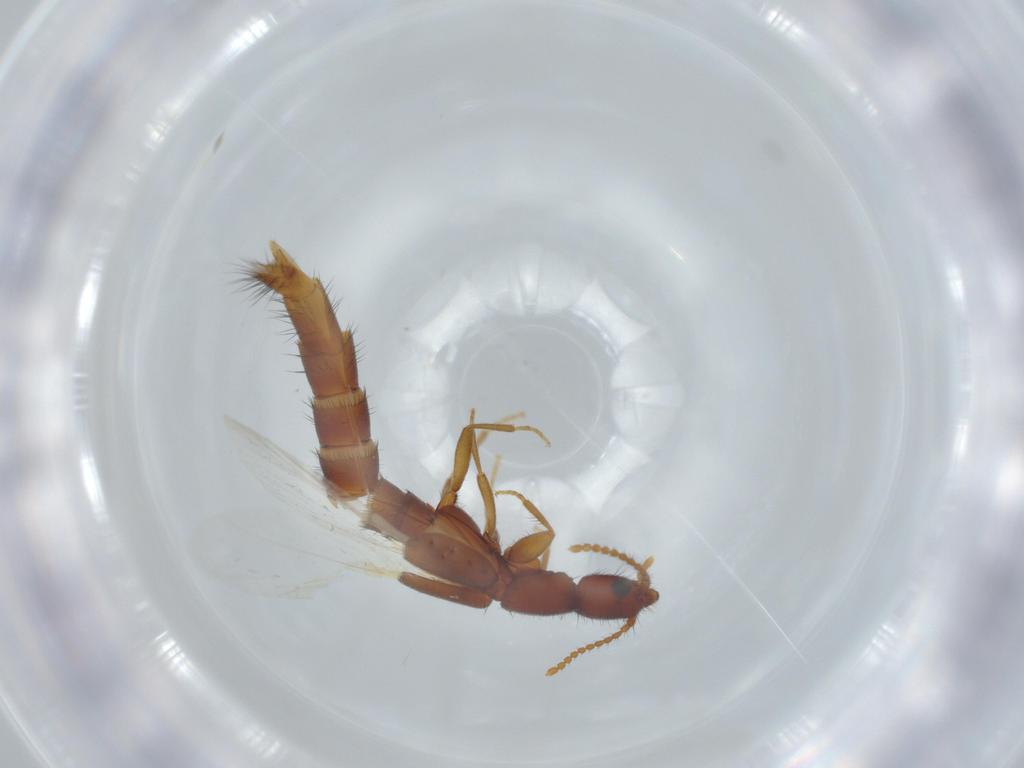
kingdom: Animalia
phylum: Arthropoda
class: Insecta
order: Coleoptera
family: Staphylinidae
